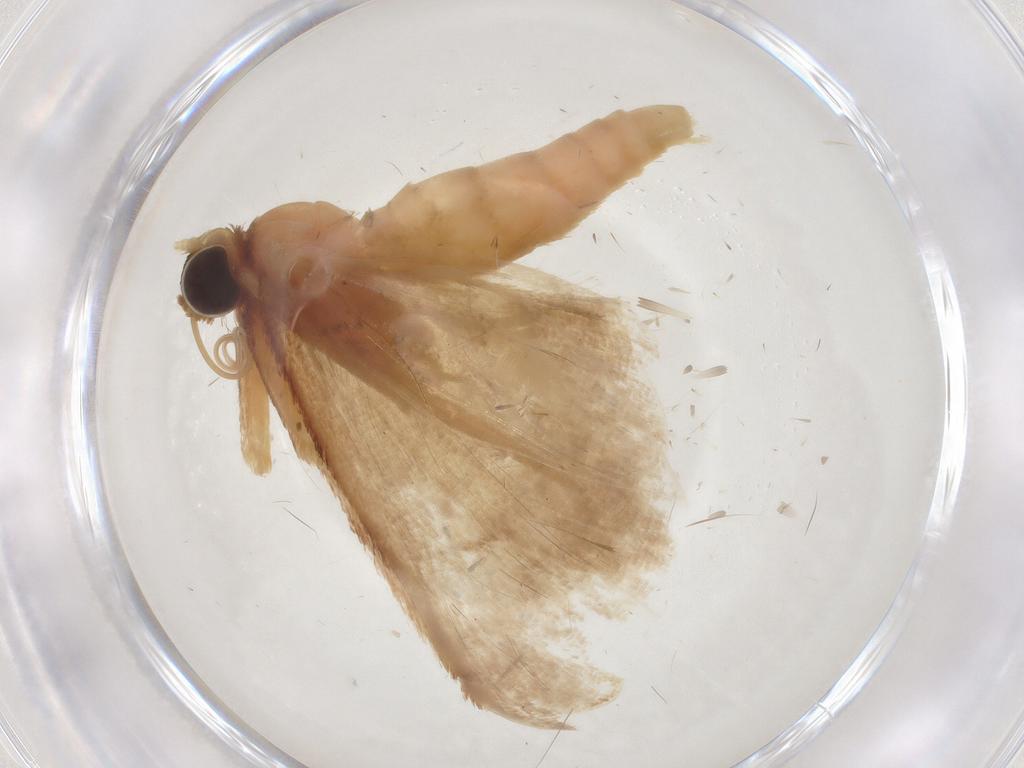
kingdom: Animalia
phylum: Arthropoda
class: Insecta
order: Lepidoptera
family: Geometridae
